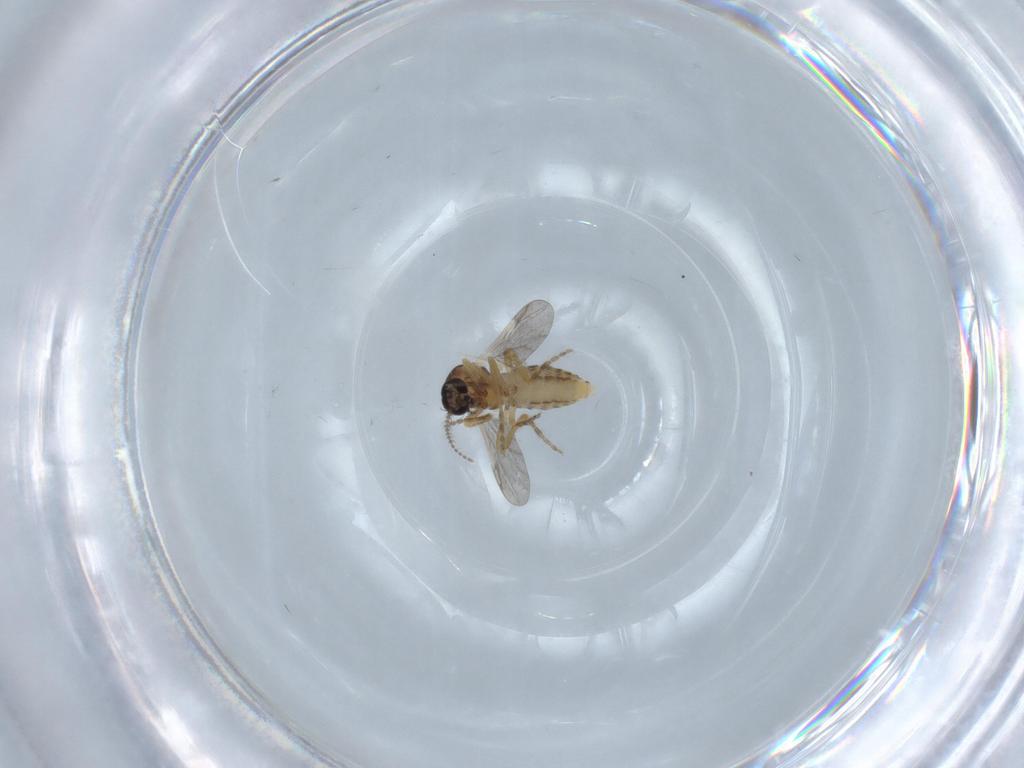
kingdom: Animalia
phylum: Arthropoda
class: Insecta
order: Diptera
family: Ceratopogonidae
